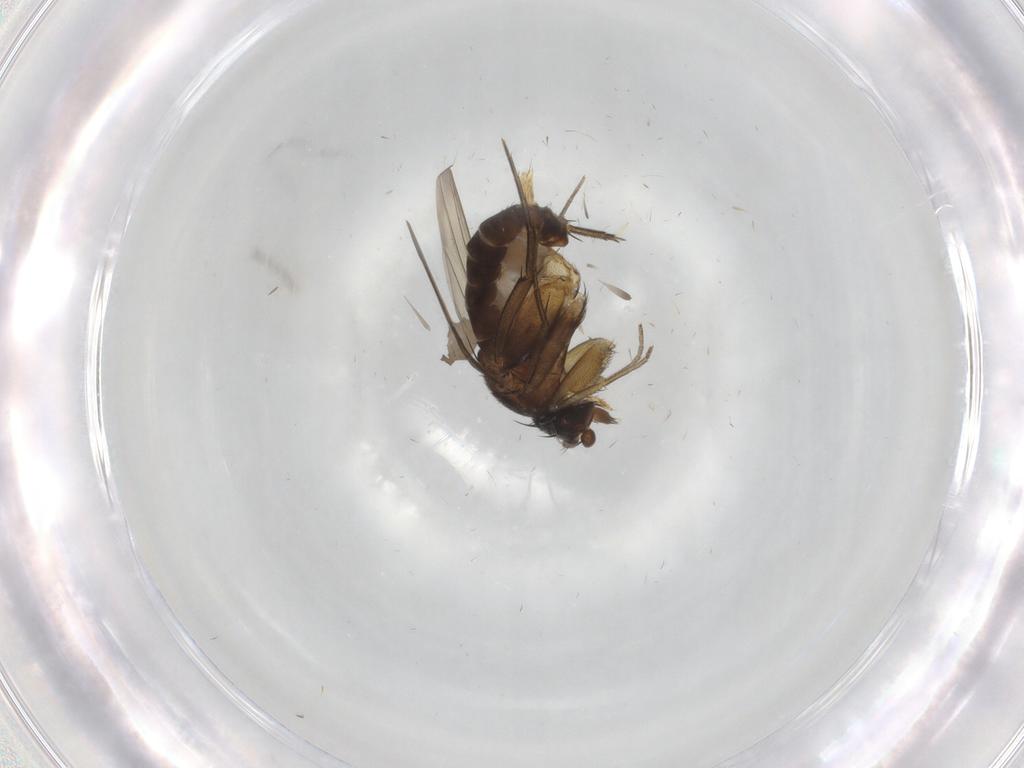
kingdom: Animalia
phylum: Arthropoda
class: Insecta
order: Diptera
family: Phoridae
